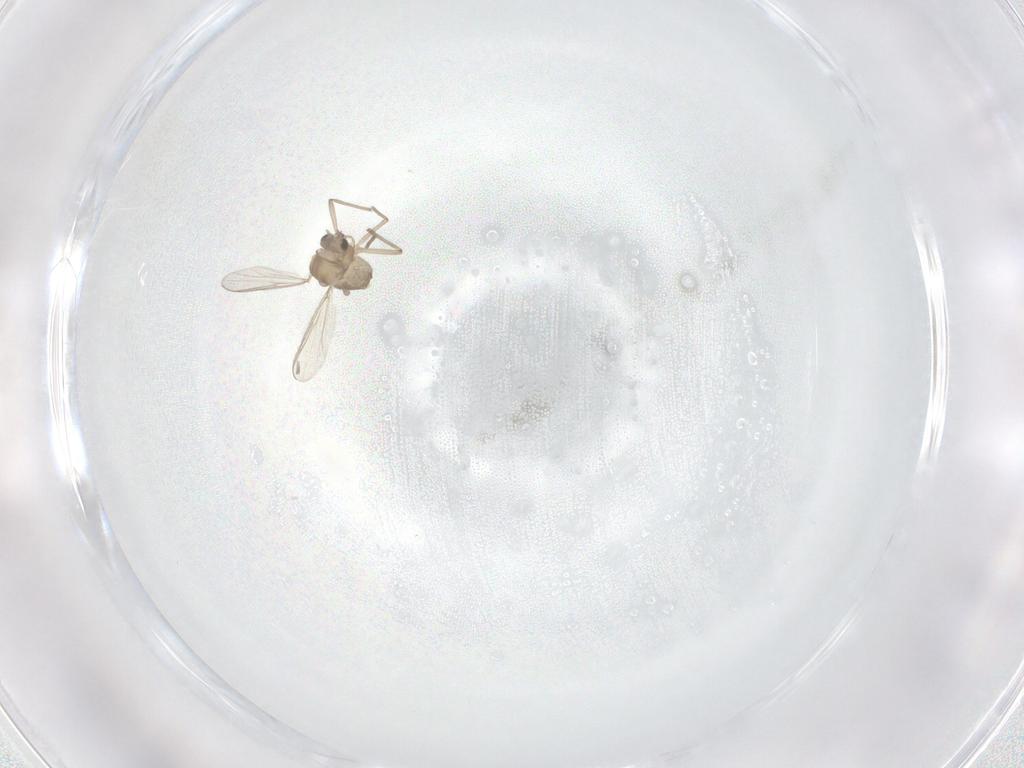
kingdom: Animalia
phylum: Arthropoda
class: Insecta
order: Diptera
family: Chironomidae
